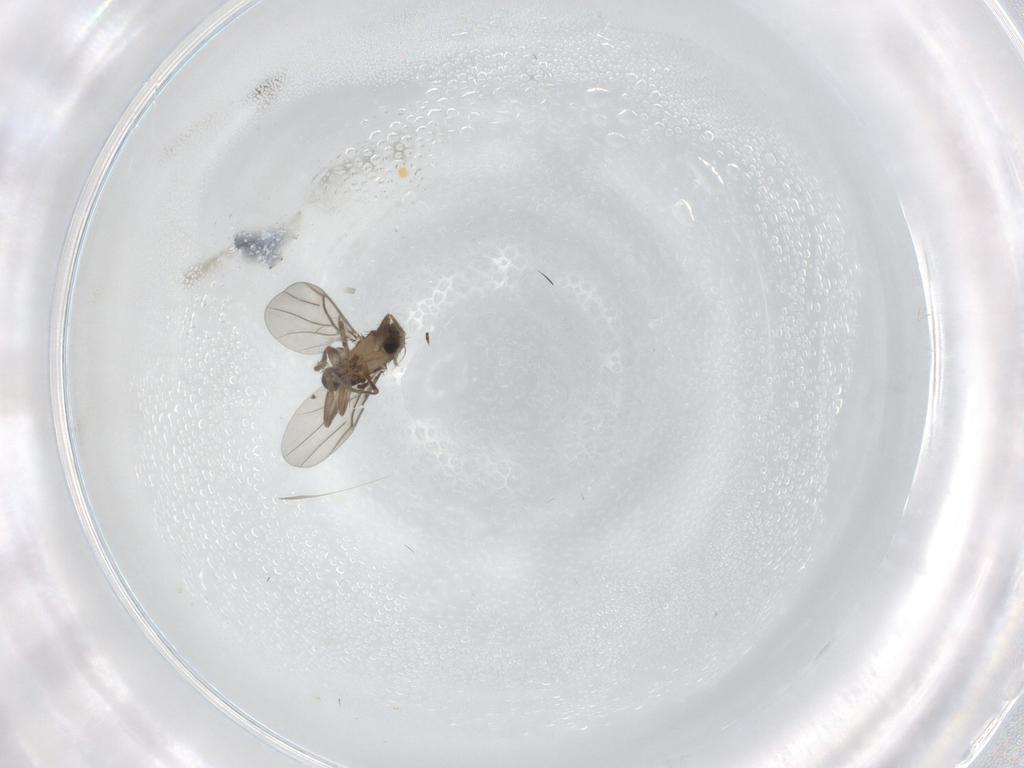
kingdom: Animalia
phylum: Arthropoda
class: Insecta
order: Diptera
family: Phoridae
